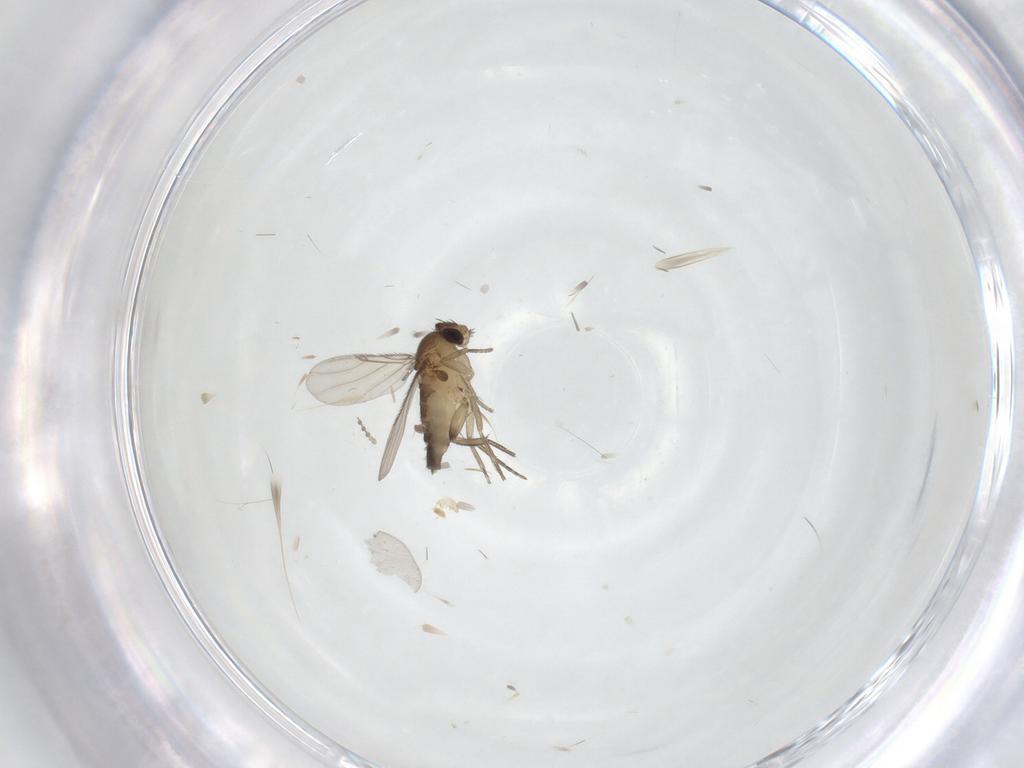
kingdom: Animalia
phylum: Arthropoda
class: Insecta
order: Diptera
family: Cecidomyiidae
